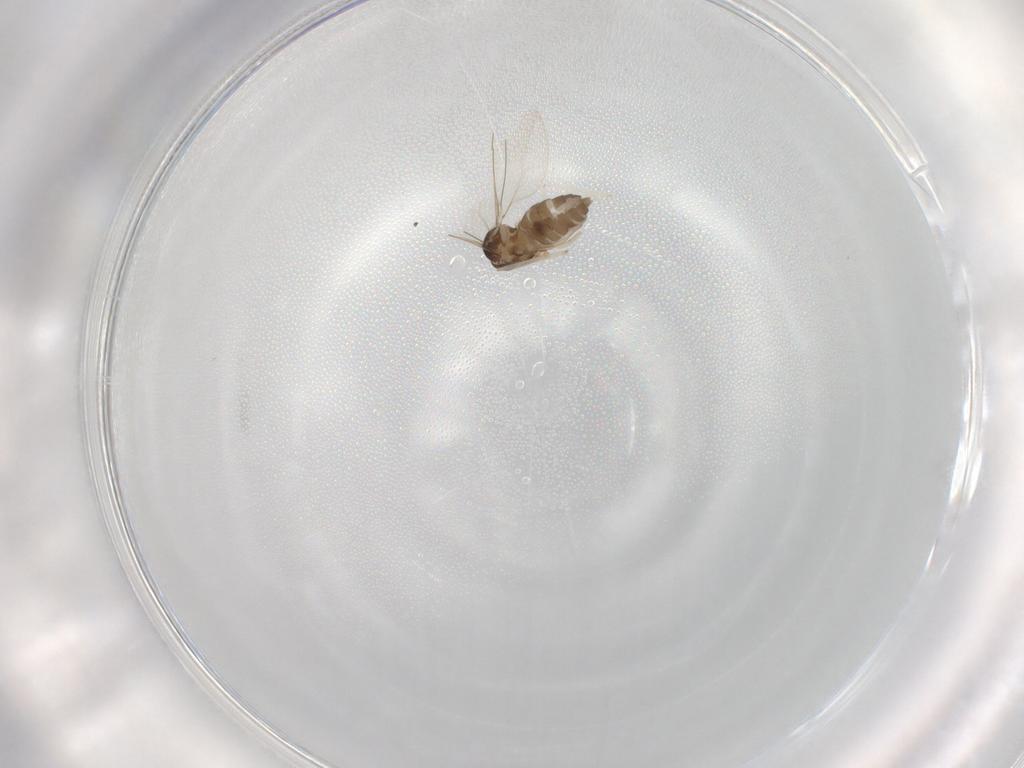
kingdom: Animalia
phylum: Arthropoda
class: Insecta
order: Diptera
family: Cecidomyiidae
